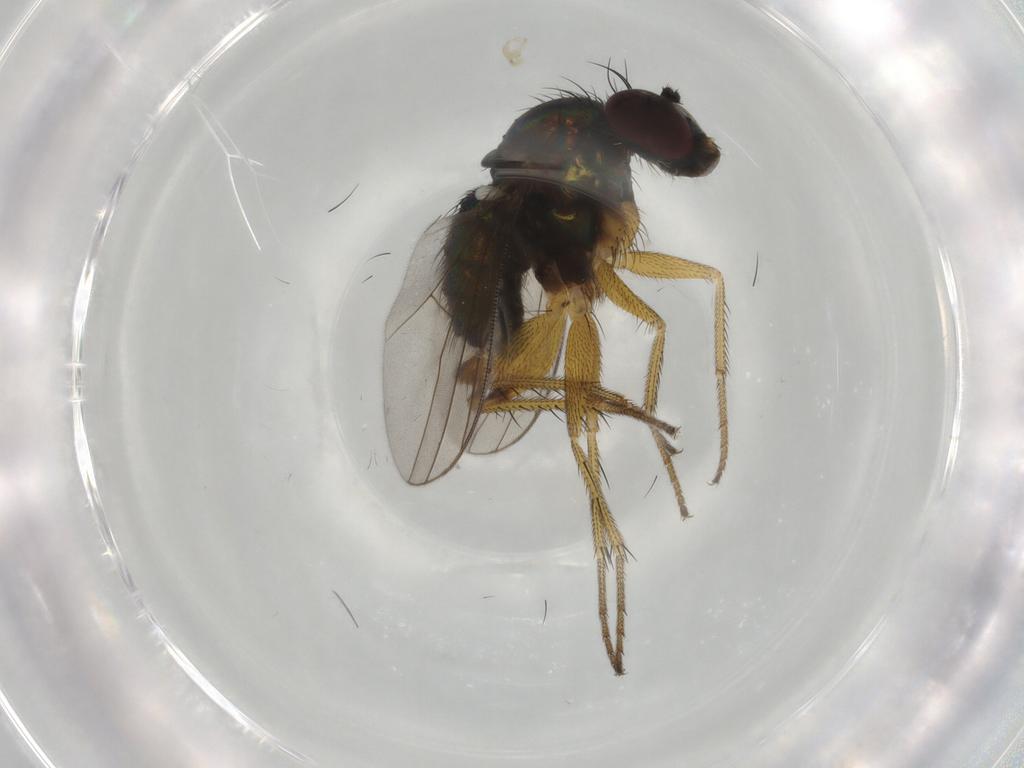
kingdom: Animalia
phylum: Arthropoda
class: Insecta
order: Diptera
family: Dolichopodidae
